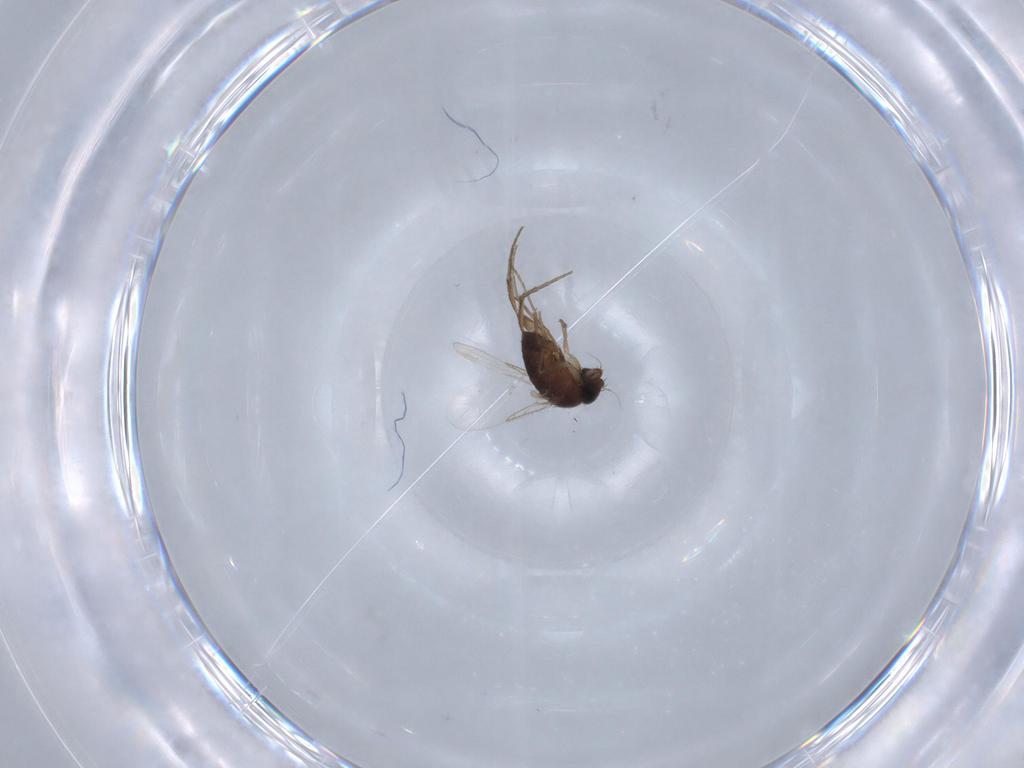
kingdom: Animalia
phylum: Arthropoda
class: Insecta
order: Diptera
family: Phoridae
